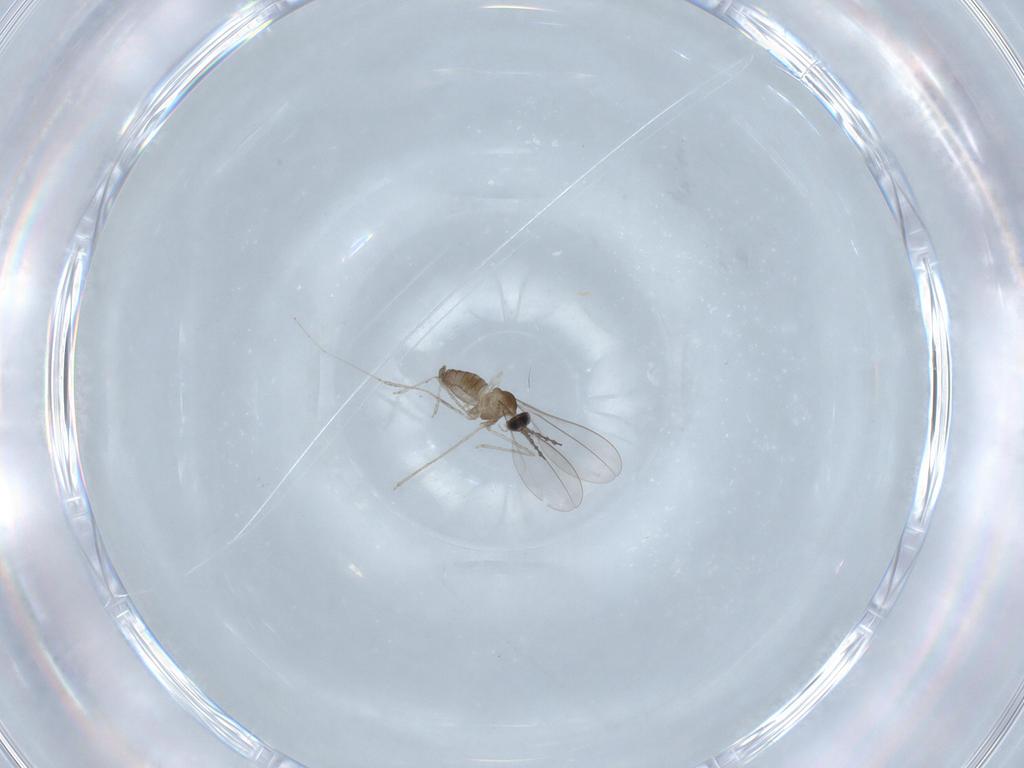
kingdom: Animalia
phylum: Arthropoda
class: Insecta
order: Diptera
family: Cecidomyiidae
